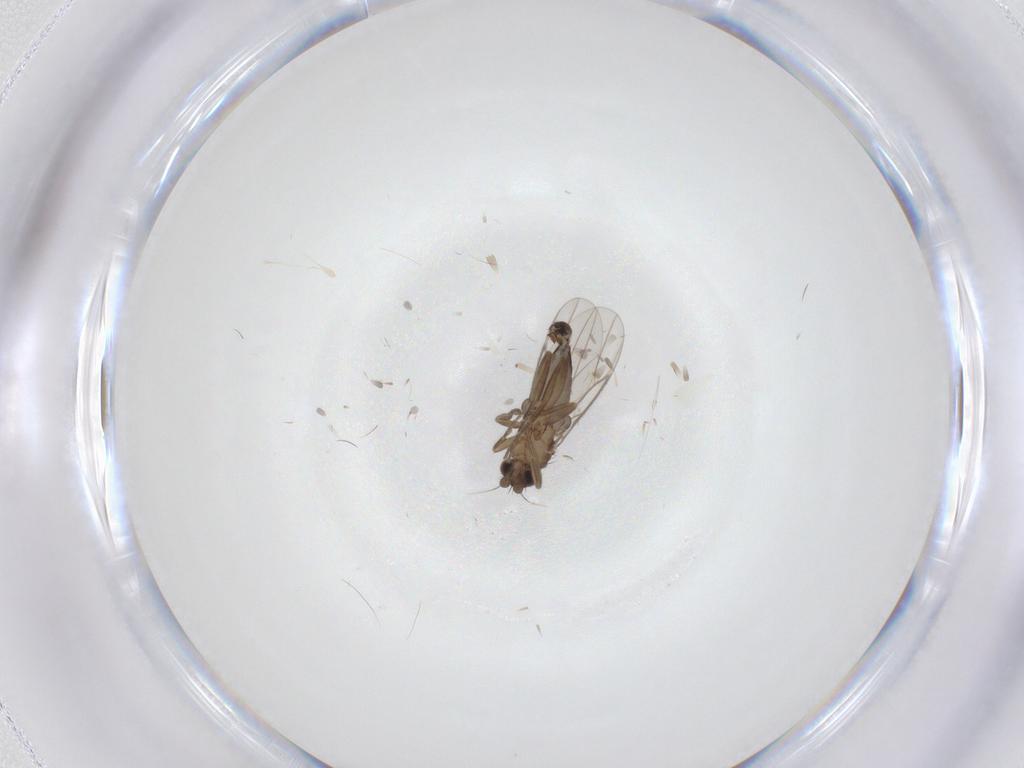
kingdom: Animalia
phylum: Arthropoda
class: Insecta
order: Diptera
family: Phoridae
